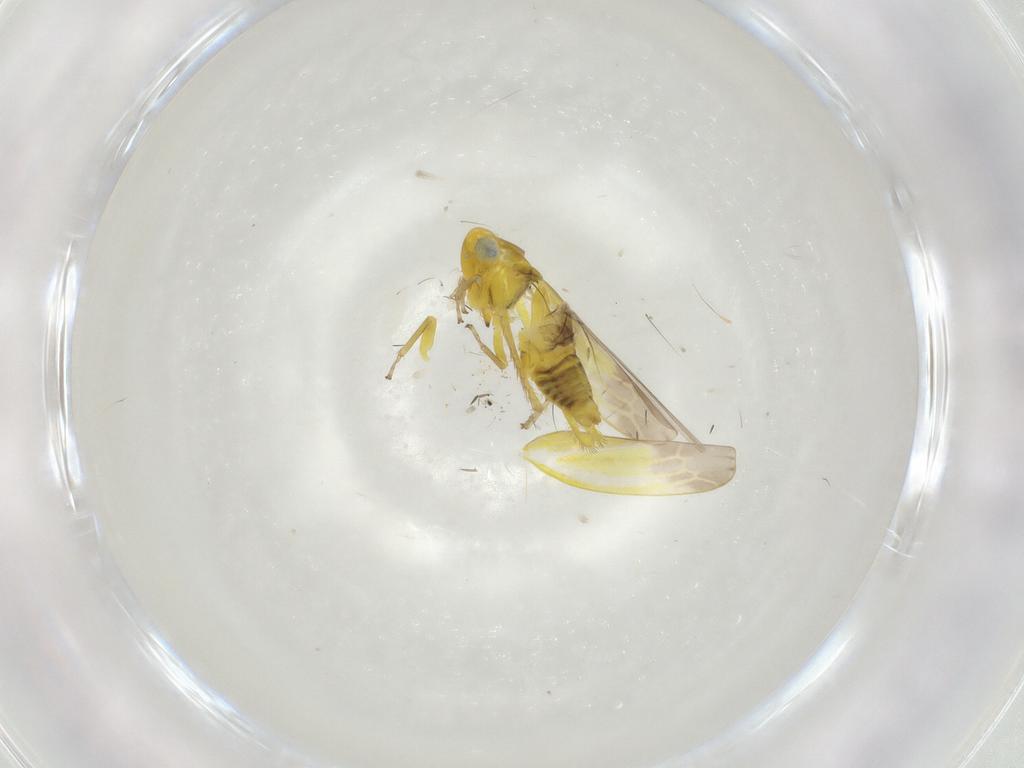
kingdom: Animalia
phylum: Arthropoda
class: Insecta
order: Hemiptera
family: Cicadellidae
